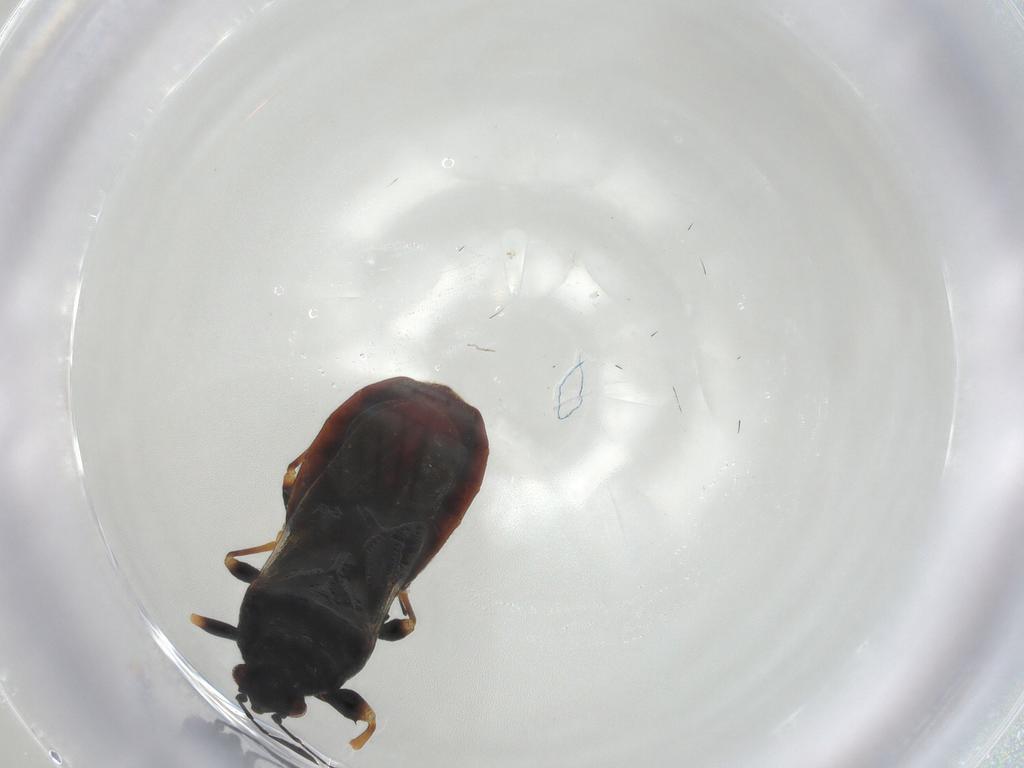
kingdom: Animalia
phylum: Arthropoda
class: Insecta
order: Hemiptera
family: Blissidae
